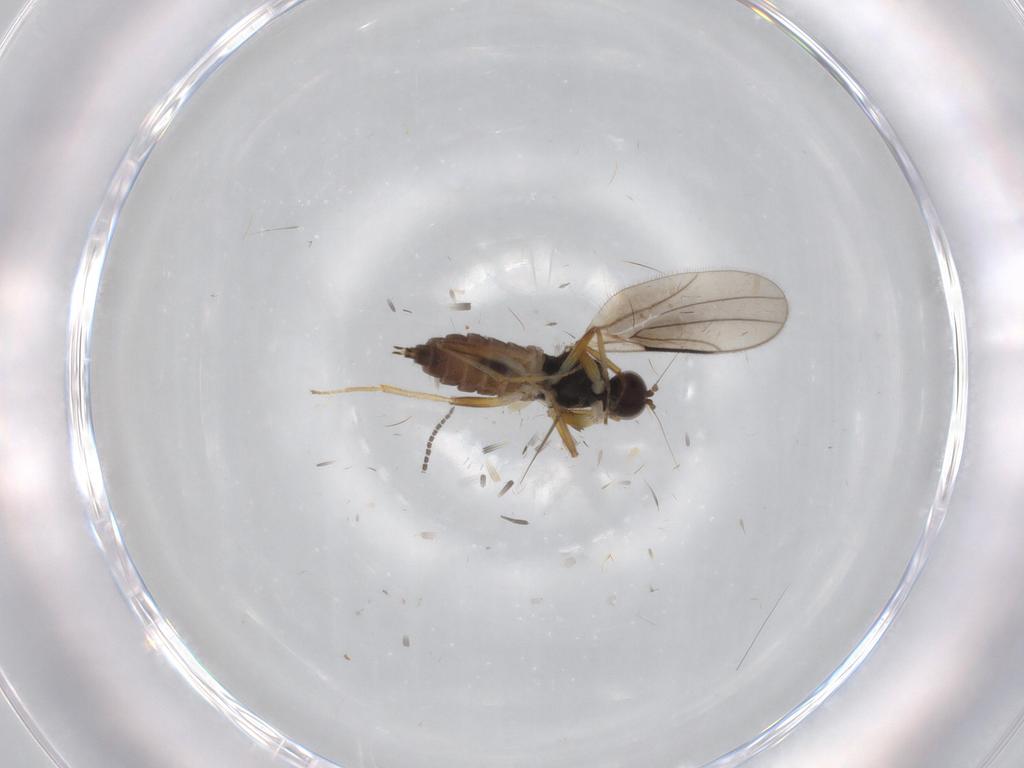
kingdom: Animalia
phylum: Arthropoda
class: Insecta
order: Diptera
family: Hybotidae
